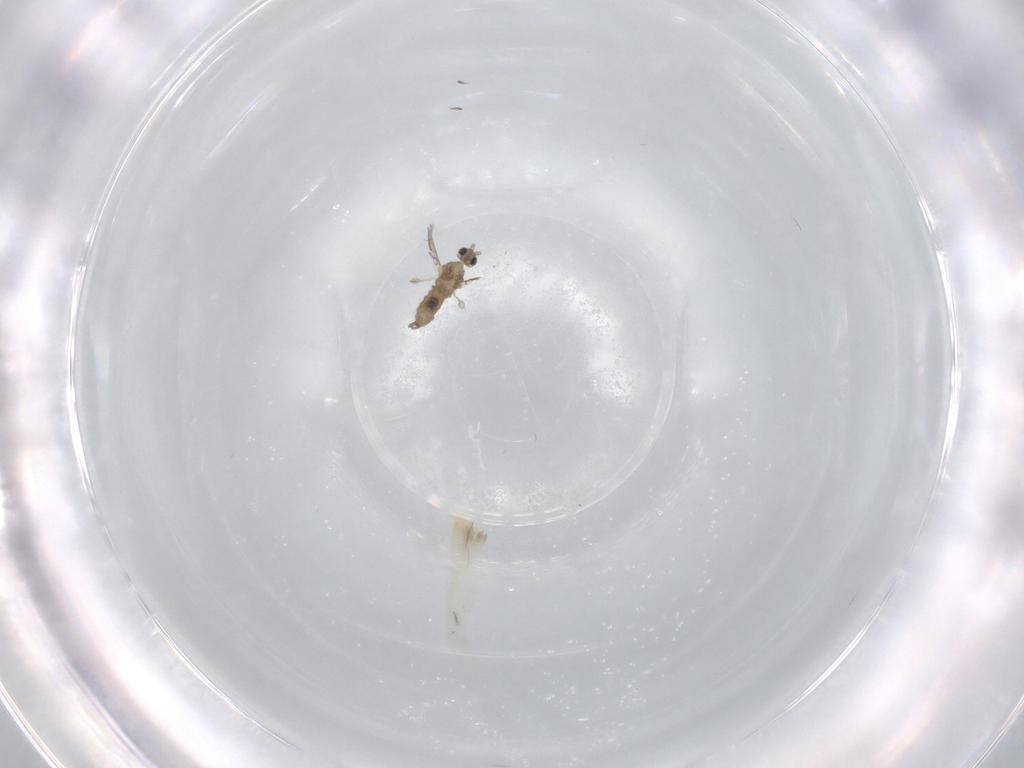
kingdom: Animalia
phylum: Arthropoda
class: Insecta
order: Diptera
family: Cecidomyiidae
